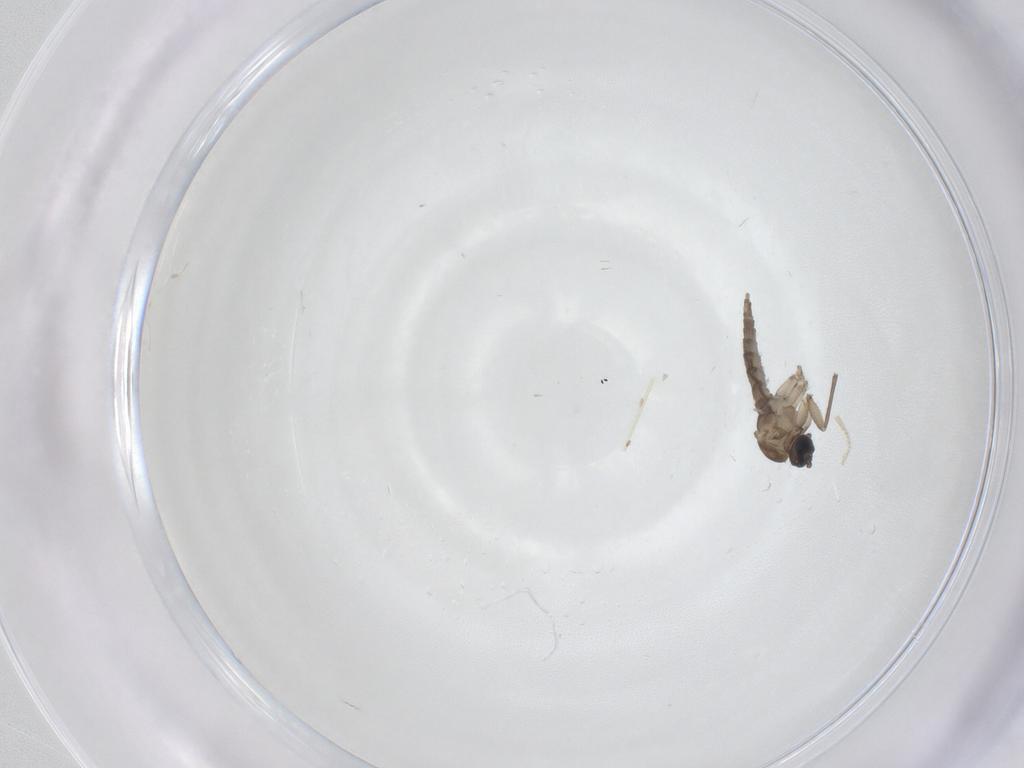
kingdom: Animalia
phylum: Arthropoda
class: Insecta
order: Diptera
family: Sciaridae
